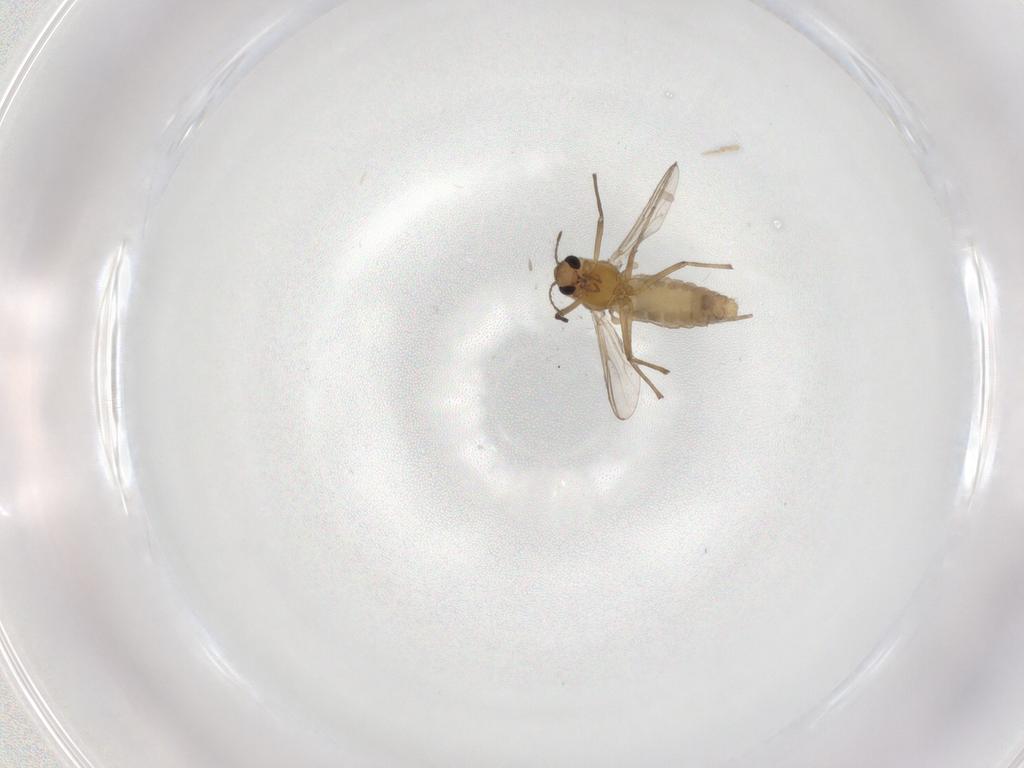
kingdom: Animalia
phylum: Arthropoda
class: Insecta
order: Diptera
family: Chironomidae
